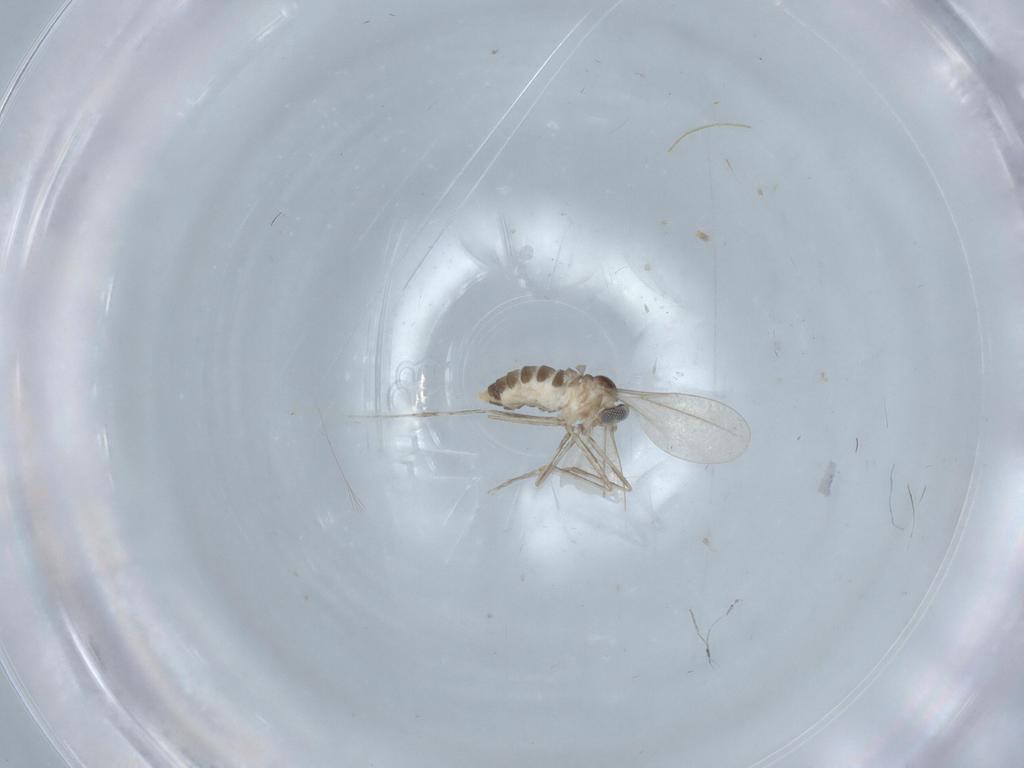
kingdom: Animalia
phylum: Arthropoda
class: Insecta
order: Diptera
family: Cecidomyiidae
